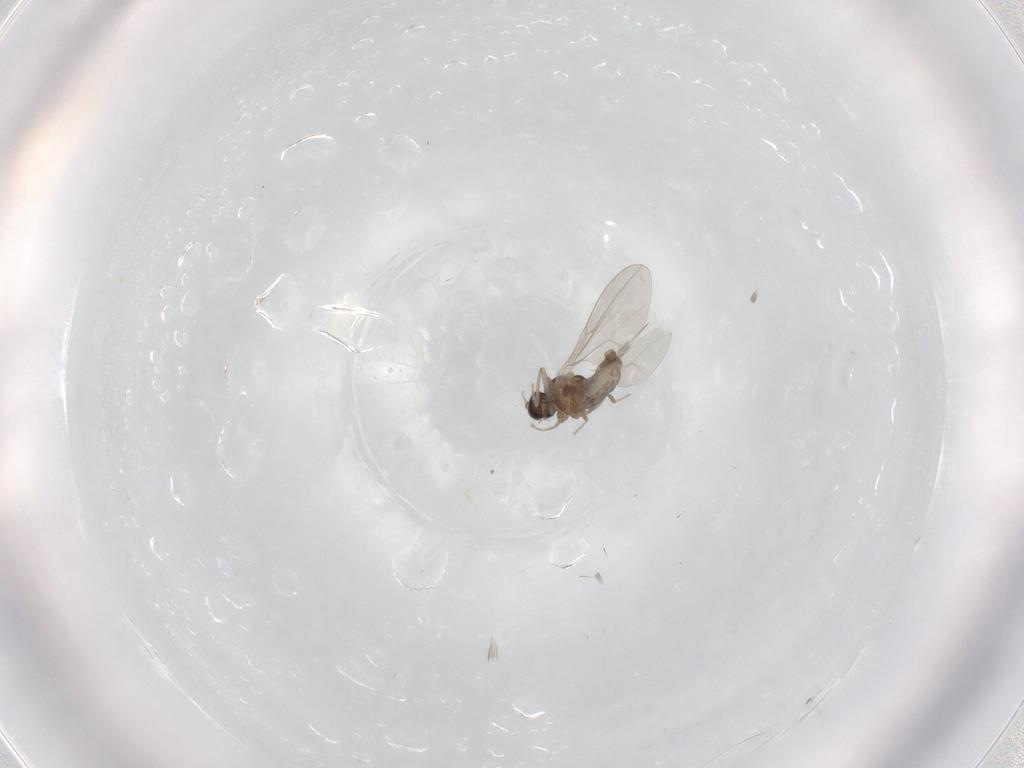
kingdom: Animalia
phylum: Arthropoda
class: Insecta
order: Diptera
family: Cecidomyiidae
